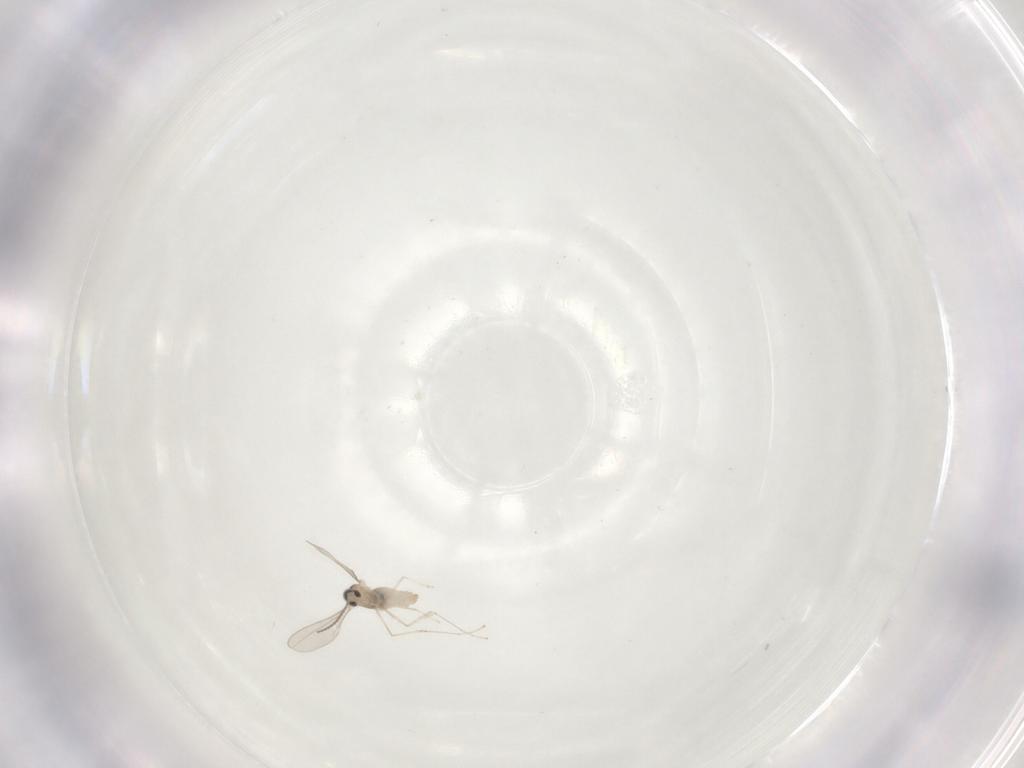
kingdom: Animalia
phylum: Arthropoda
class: Insecta
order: Diptera
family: Cecidomyiidae
